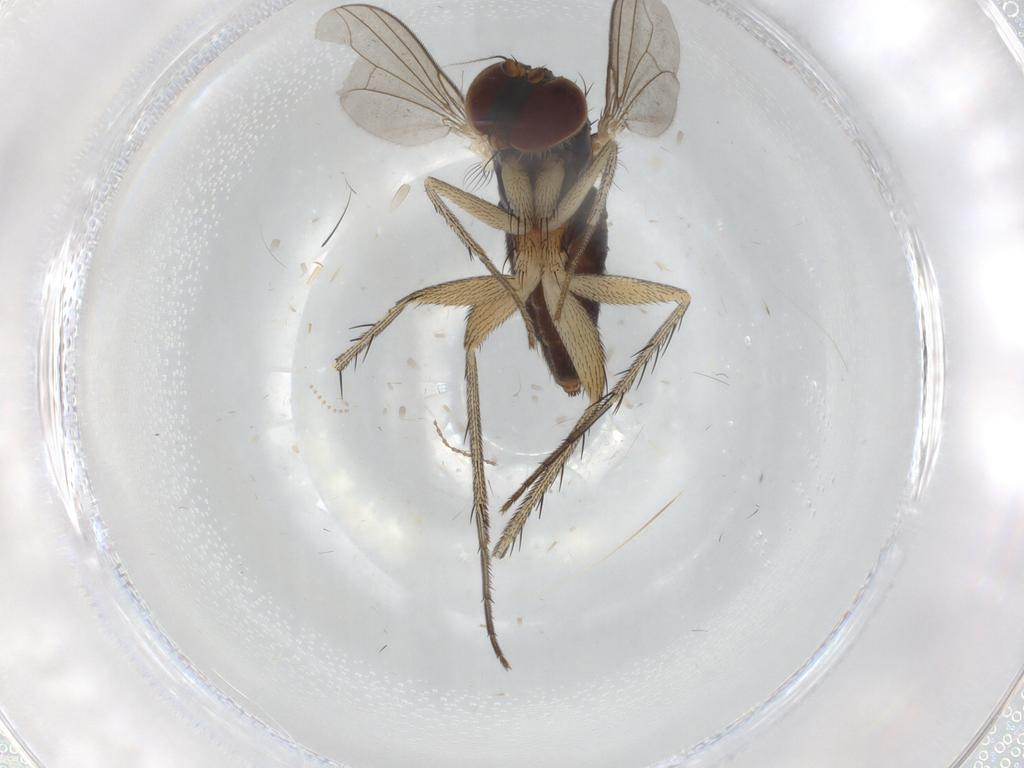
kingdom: Animalia
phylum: Arthropoda
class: Insecta
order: Diptera
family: Dolichopodidae
